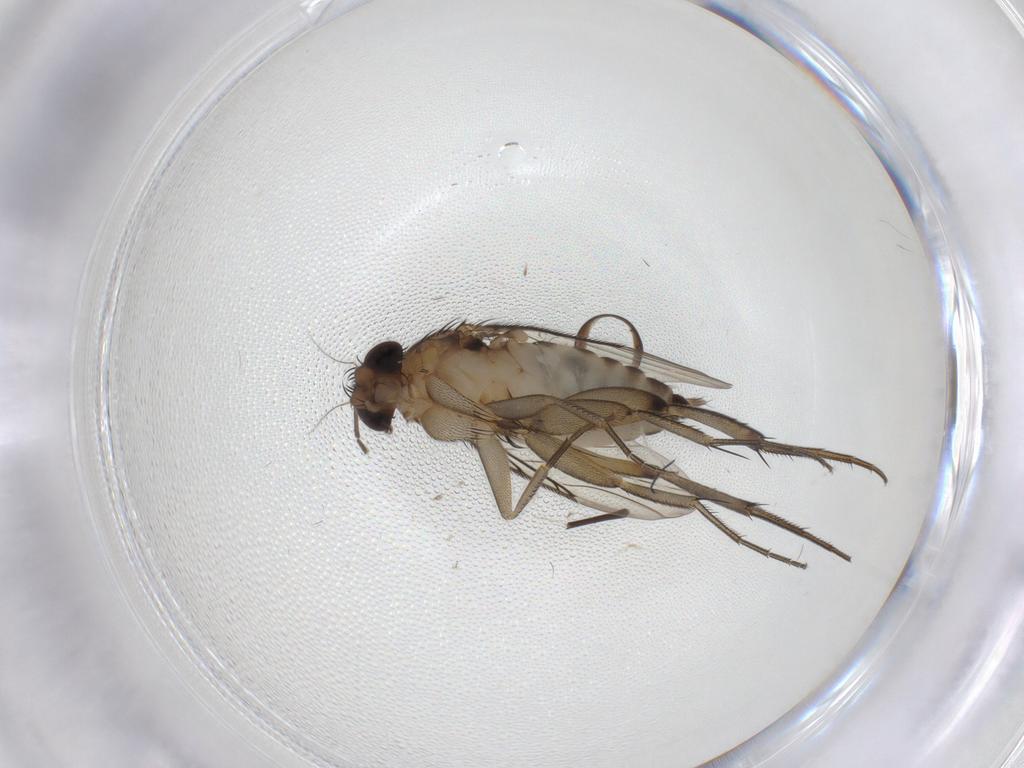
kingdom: Animalia
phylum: Arthropoda
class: Insecta
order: Diptera
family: Phoridae
